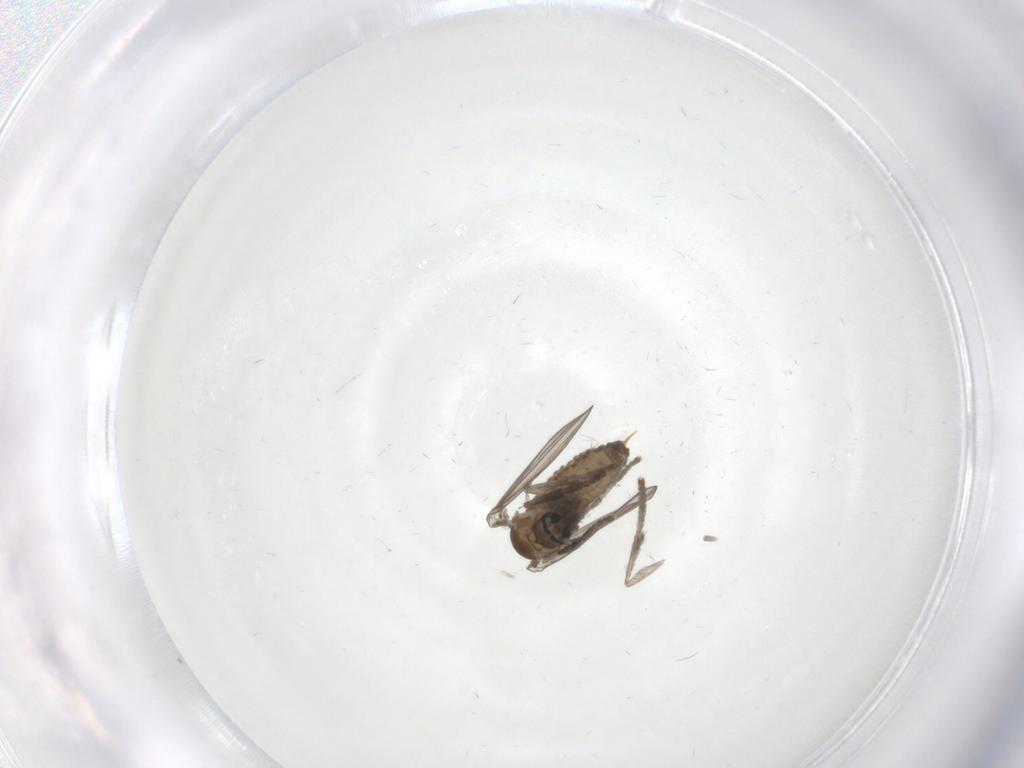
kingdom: Animalia
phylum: Arthropoda
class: Insecta
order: Diptera
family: Psychodidae
